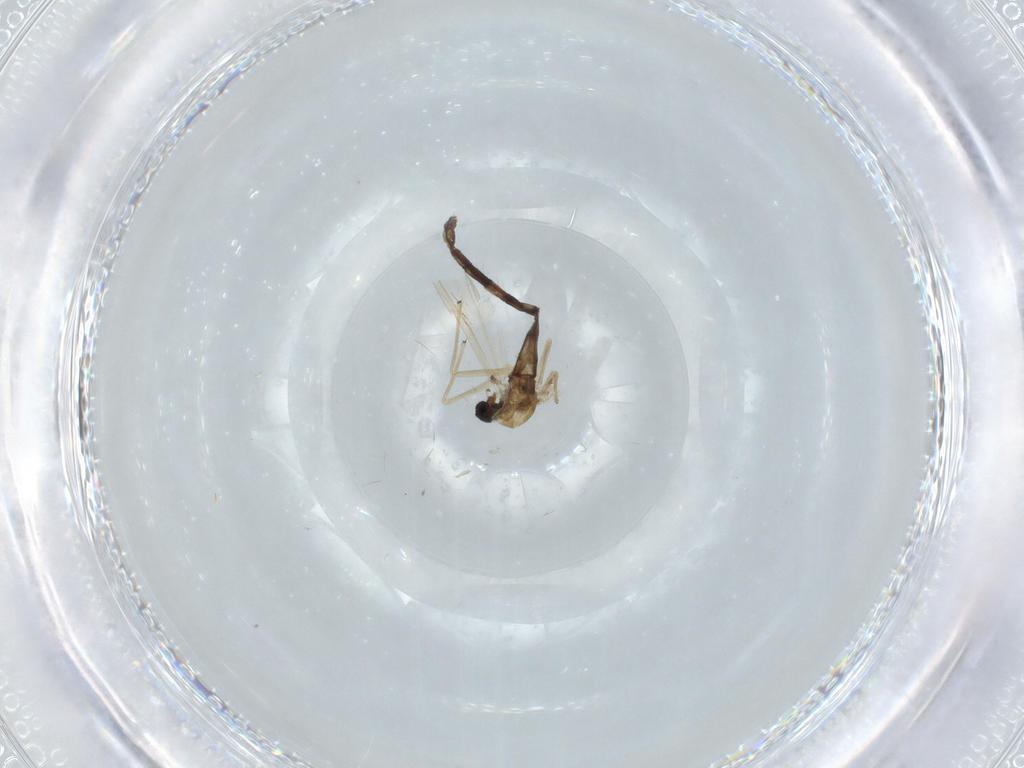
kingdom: Animalia
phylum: Arthropoda
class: Insecta
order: Diptera
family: Chironomidae
